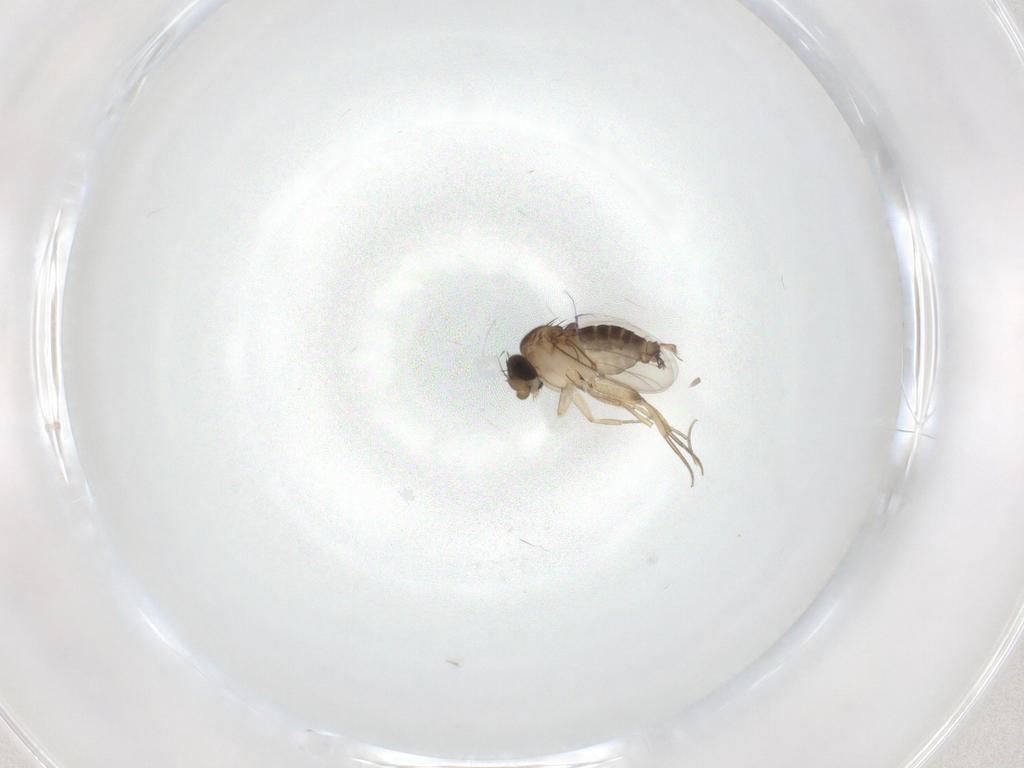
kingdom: Animalia
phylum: Arthropoda
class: Insecta
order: Diptera
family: Phoridae
